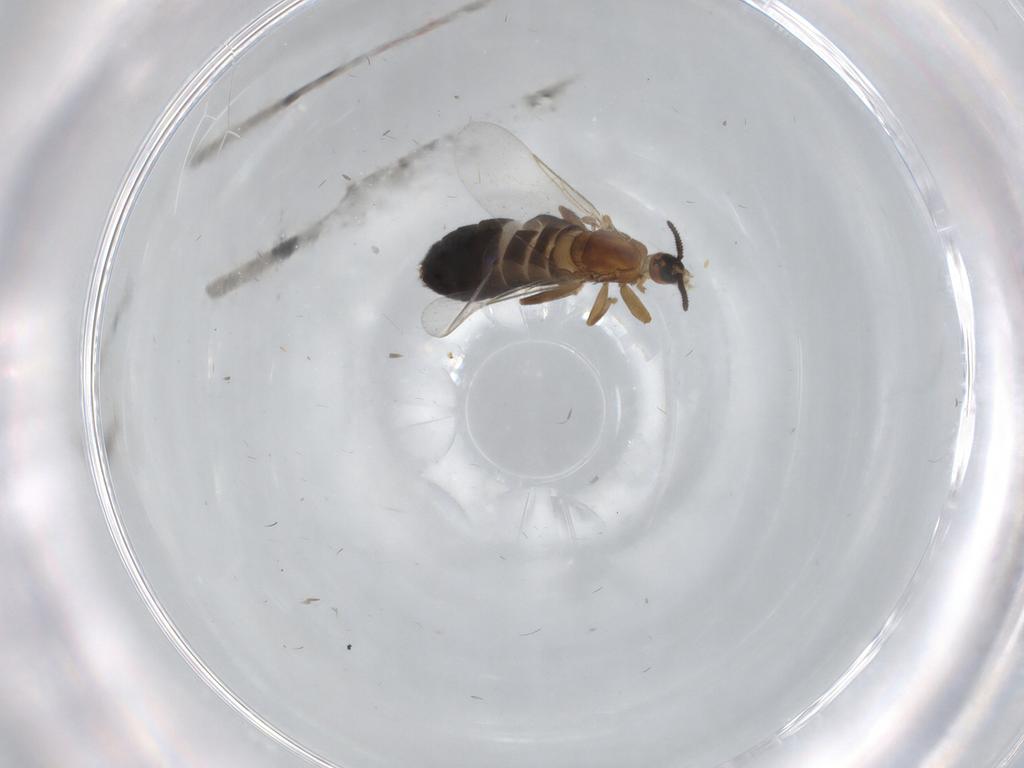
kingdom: Animalia
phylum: Arthropoda
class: Insecta
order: Diptera
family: Scatopsidae
